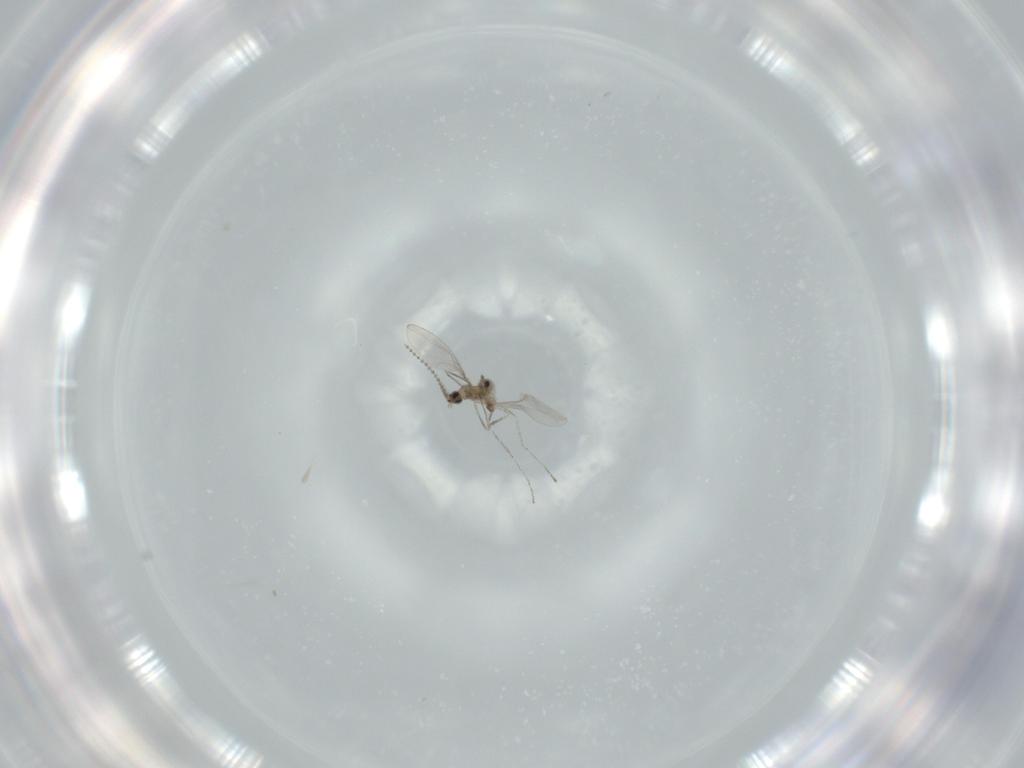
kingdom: Animalia
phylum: Arthropoda
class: Insecta
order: Diptera
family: Cecidomyiidae
